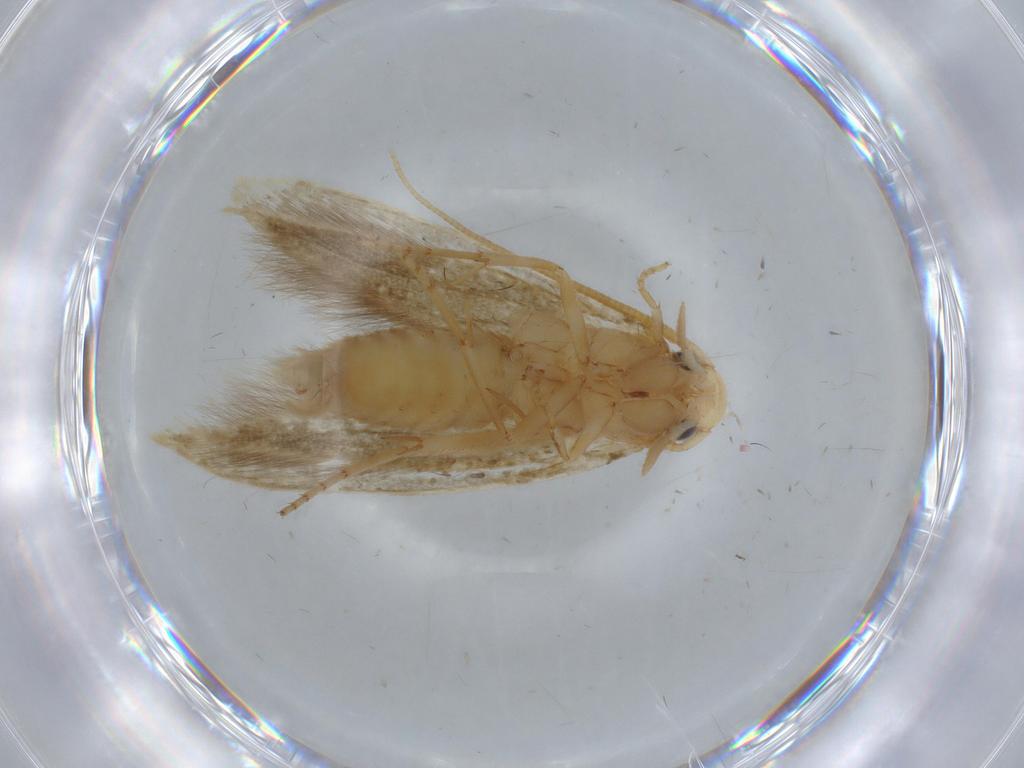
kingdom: Animalia
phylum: Arthropoda
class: Insecta
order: Lepidoptera
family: Tineidae
